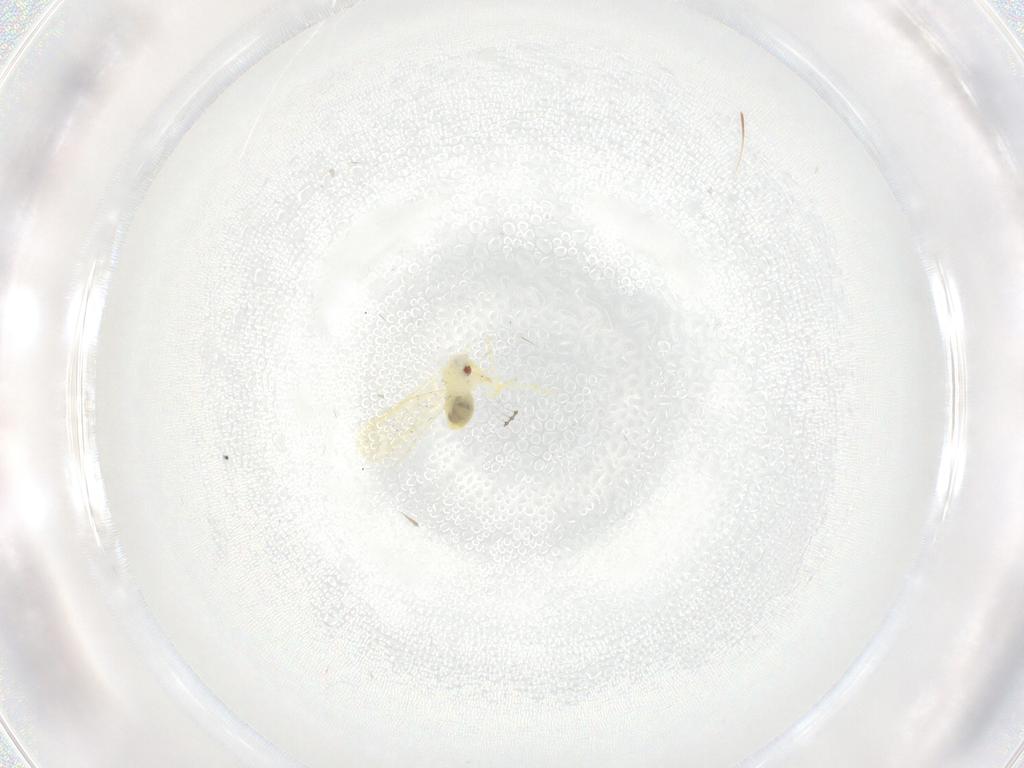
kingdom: Animalia
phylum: Arthropoda
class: Insecta
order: Hemiptera
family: Aleyrodidae
